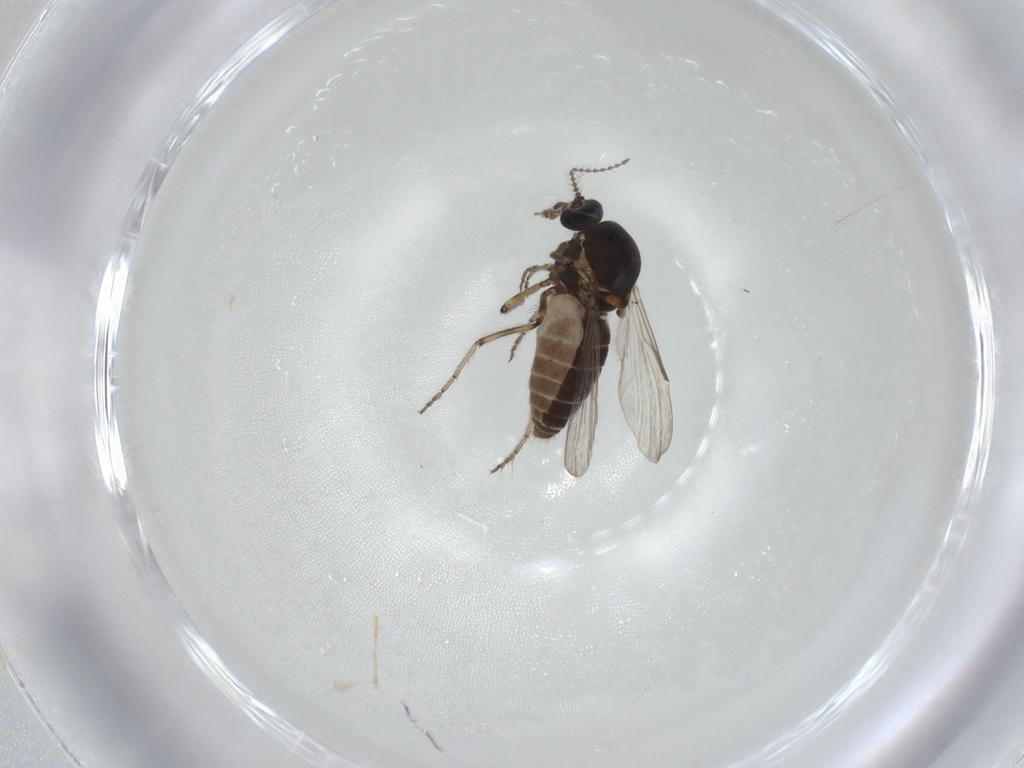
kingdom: Animalia
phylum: Arthropoda
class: Insecta
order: Diptera
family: Ceratopogonidae
